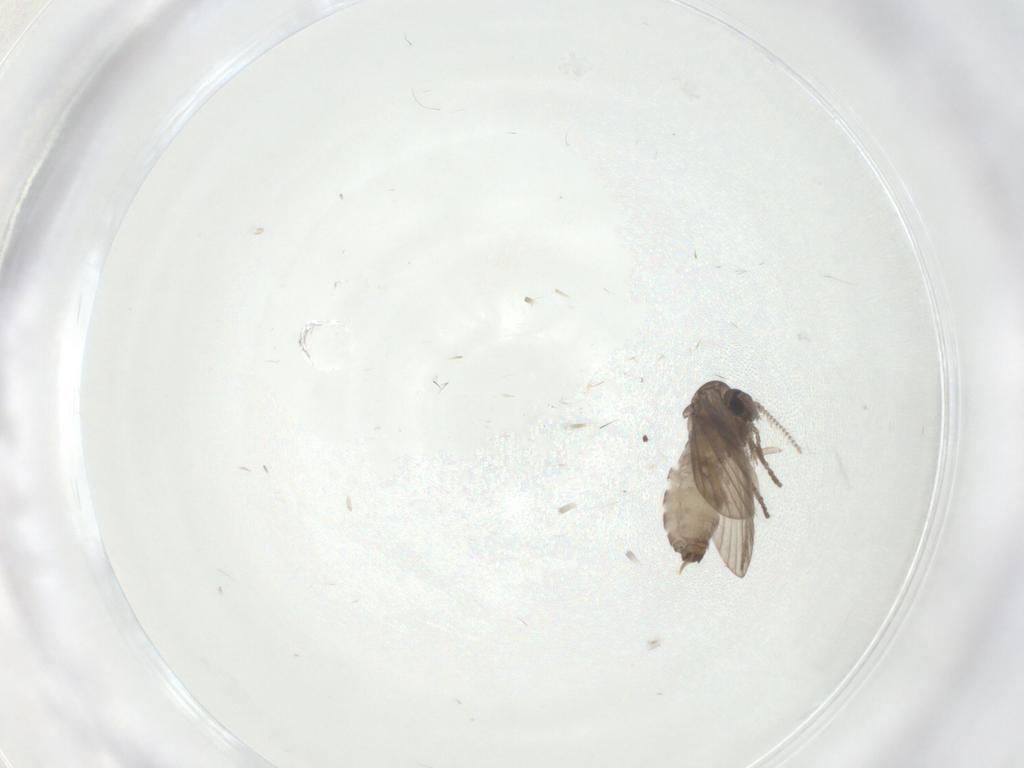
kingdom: Animalia
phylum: Arthropoda
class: Insecta
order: Diptera
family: Psychodidae
